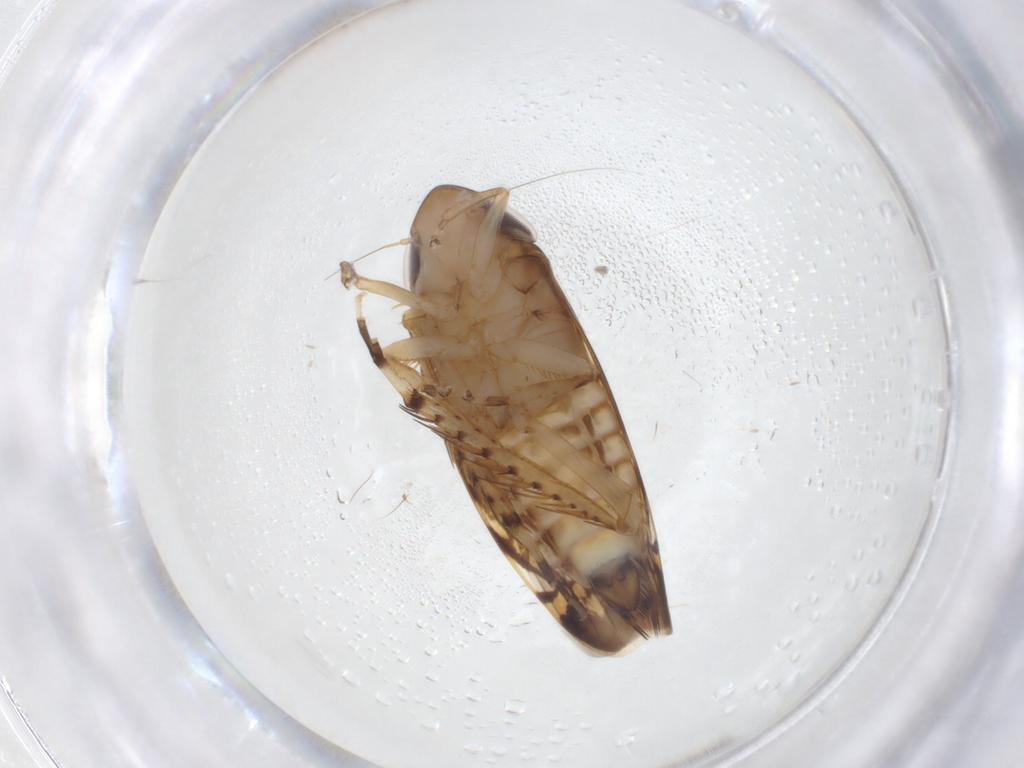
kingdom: Animalia
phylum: Arthropoda
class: Insecta
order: Hemiptera
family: Cicadellidae
